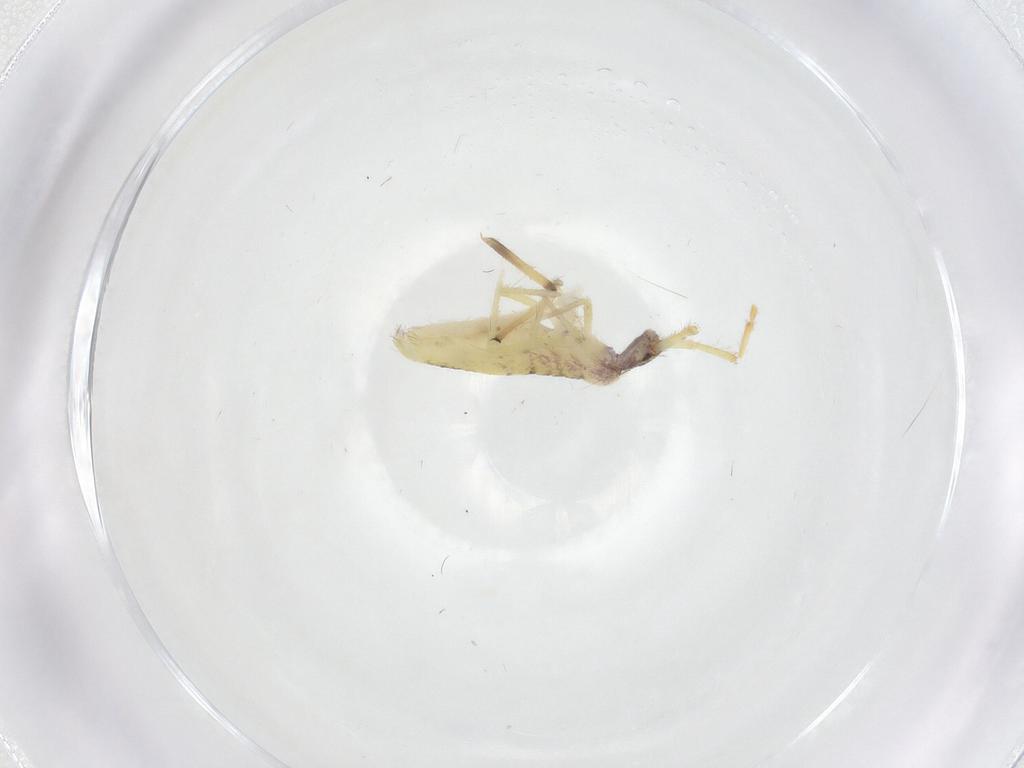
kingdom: Animalia
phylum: Arthropoda
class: Collembola
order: Entomobryomorpha
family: Entomobryidae
